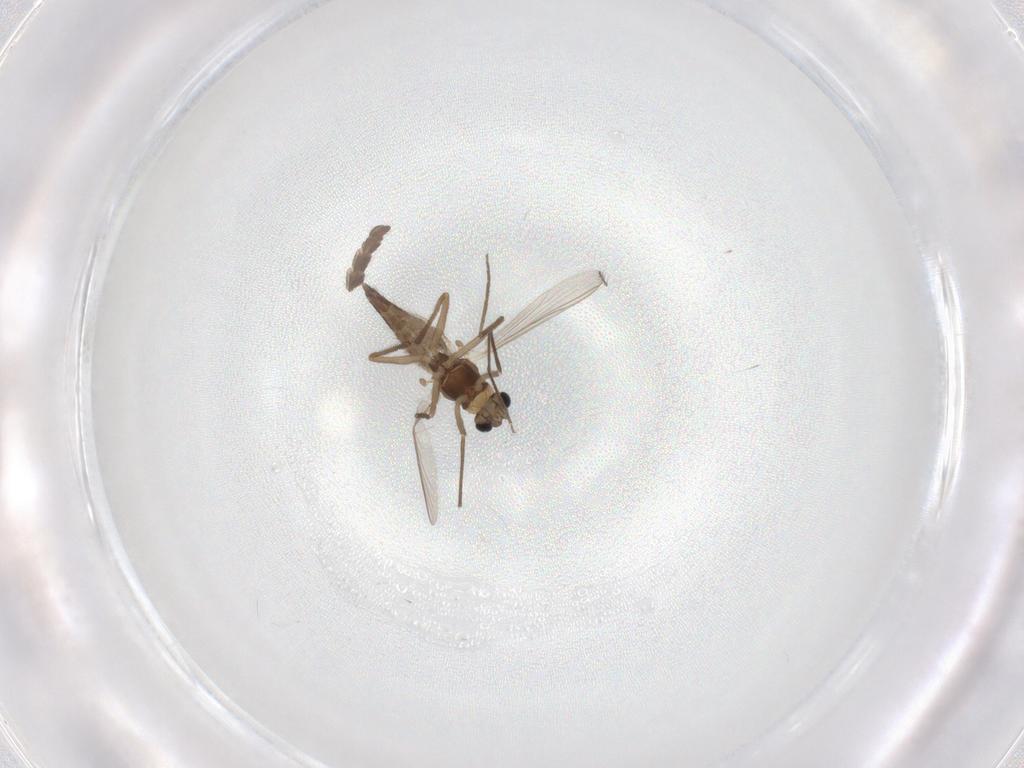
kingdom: Animalia
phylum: Arthropoda
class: Insecta
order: Diptera
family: Chironomidae
